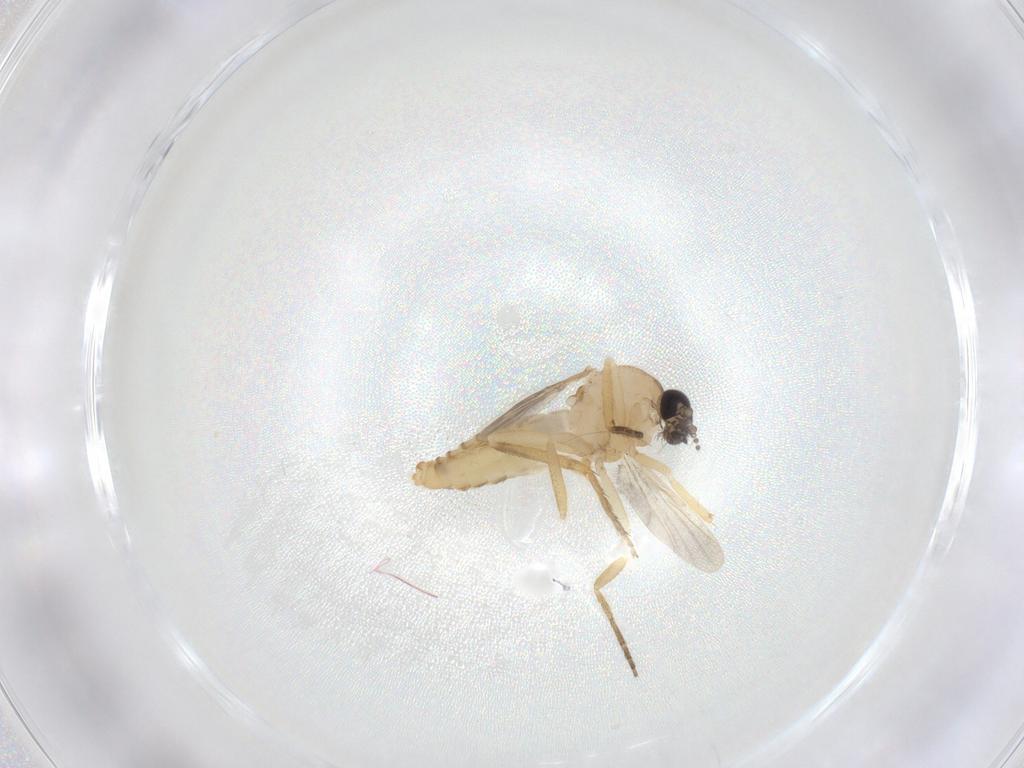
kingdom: Animalia
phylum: Arthropoda
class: Insecta
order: Diptera
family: Ceratopogonidae
